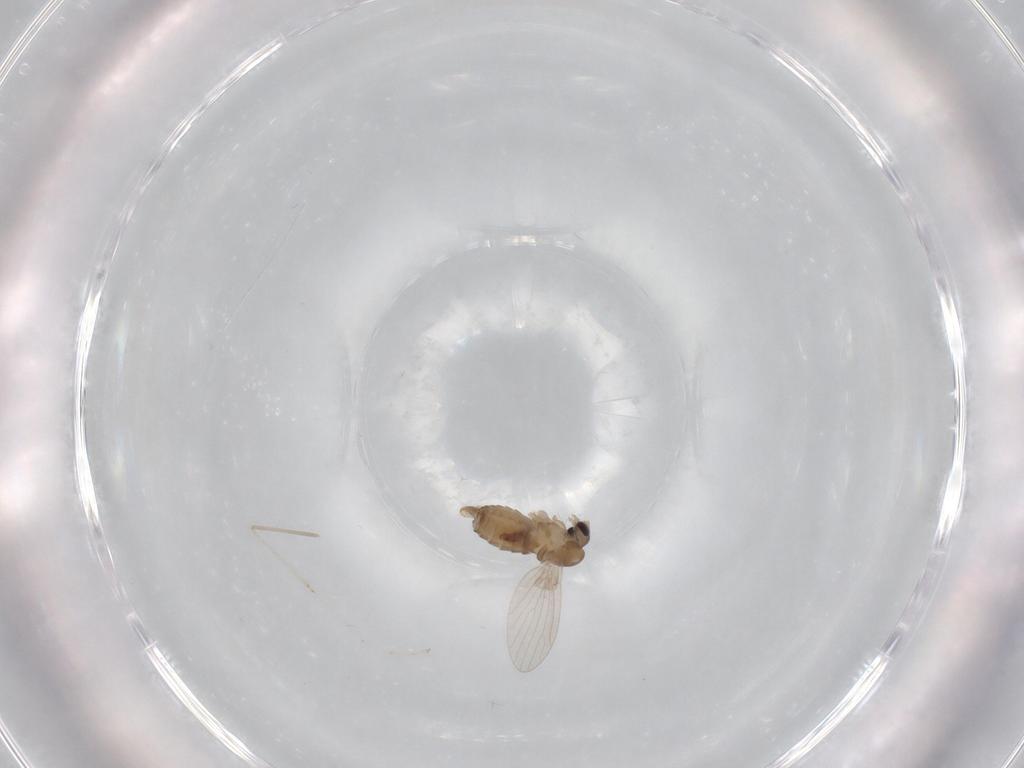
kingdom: Animalia
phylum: Arthropoda
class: Insecta
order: Diptera
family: Psychodidae
